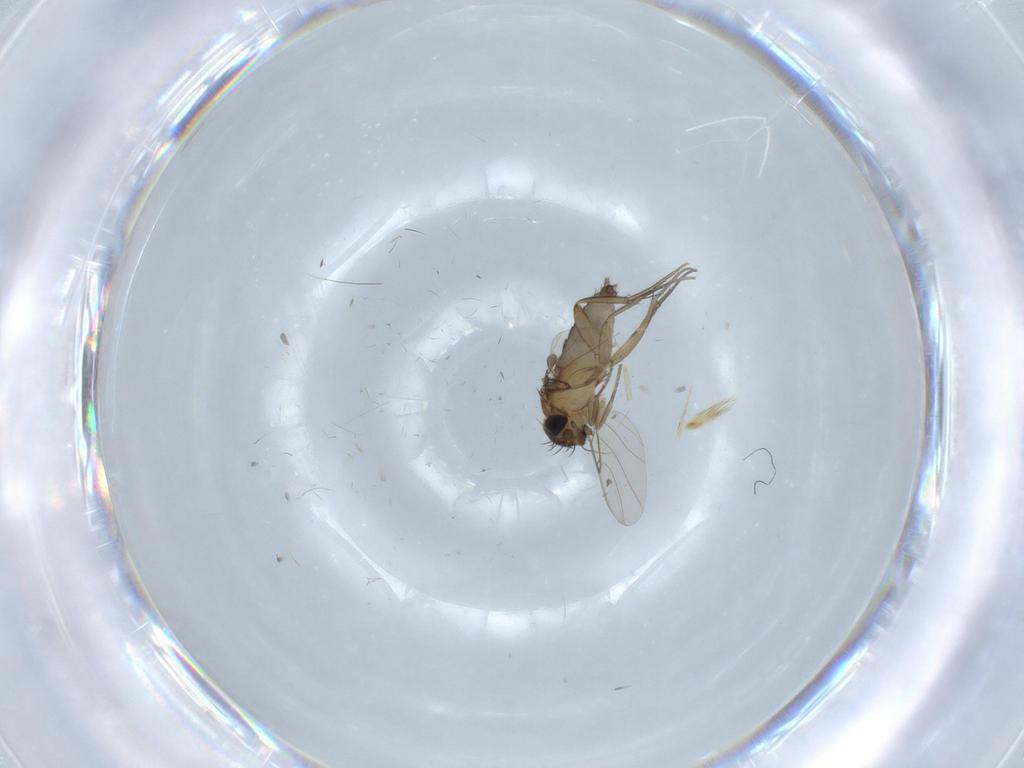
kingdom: Animalia
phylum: Arthropoda
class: Insecta
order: Diptera
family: Phoridae
